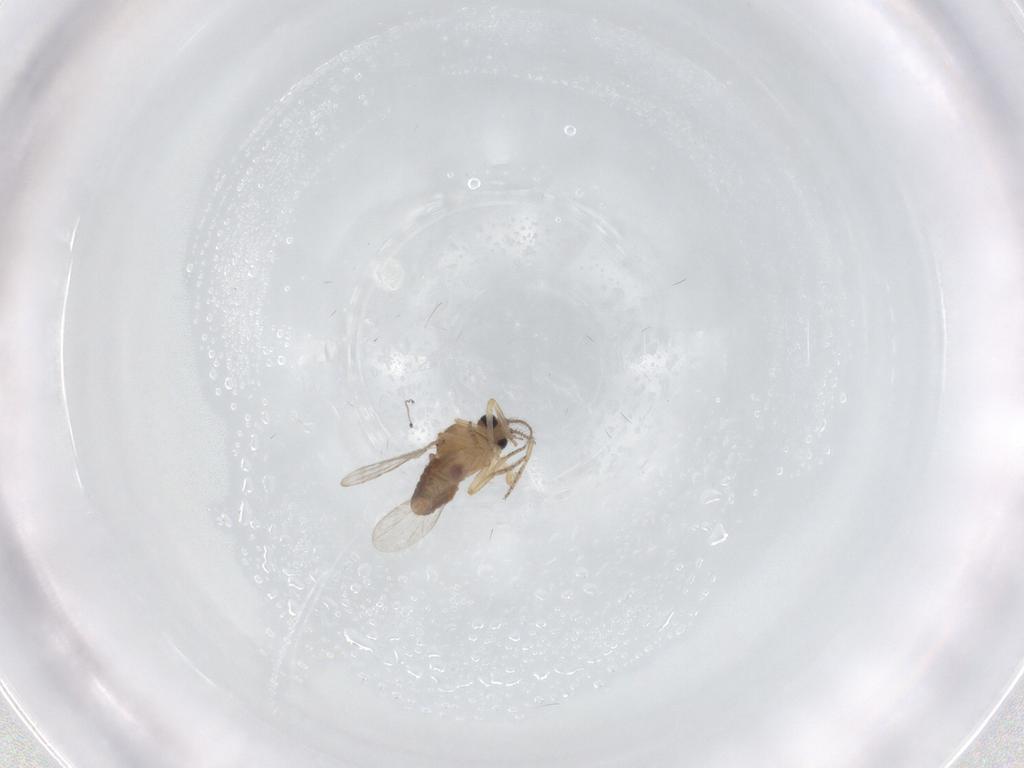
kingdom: Animalia
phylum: Arthropoda
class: Insecta
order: Diptera
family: Ceratopogonidae
